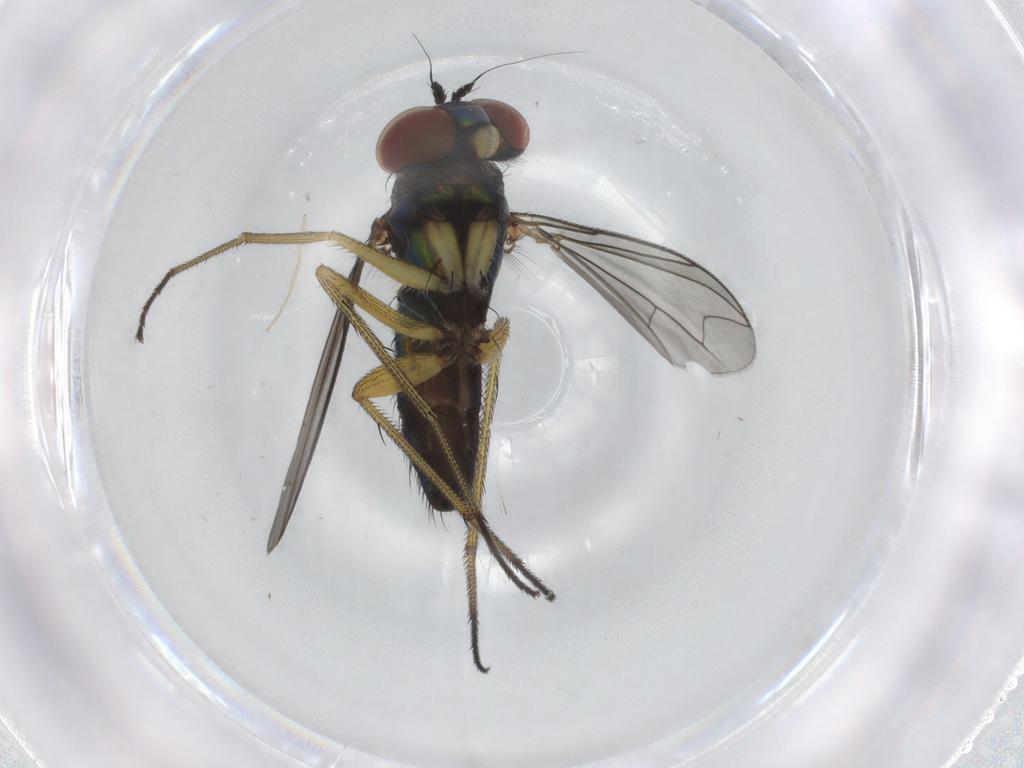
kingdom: Animalia
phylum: Arthropoda
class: Insecta
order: Diptera
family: Dolichopodidae
